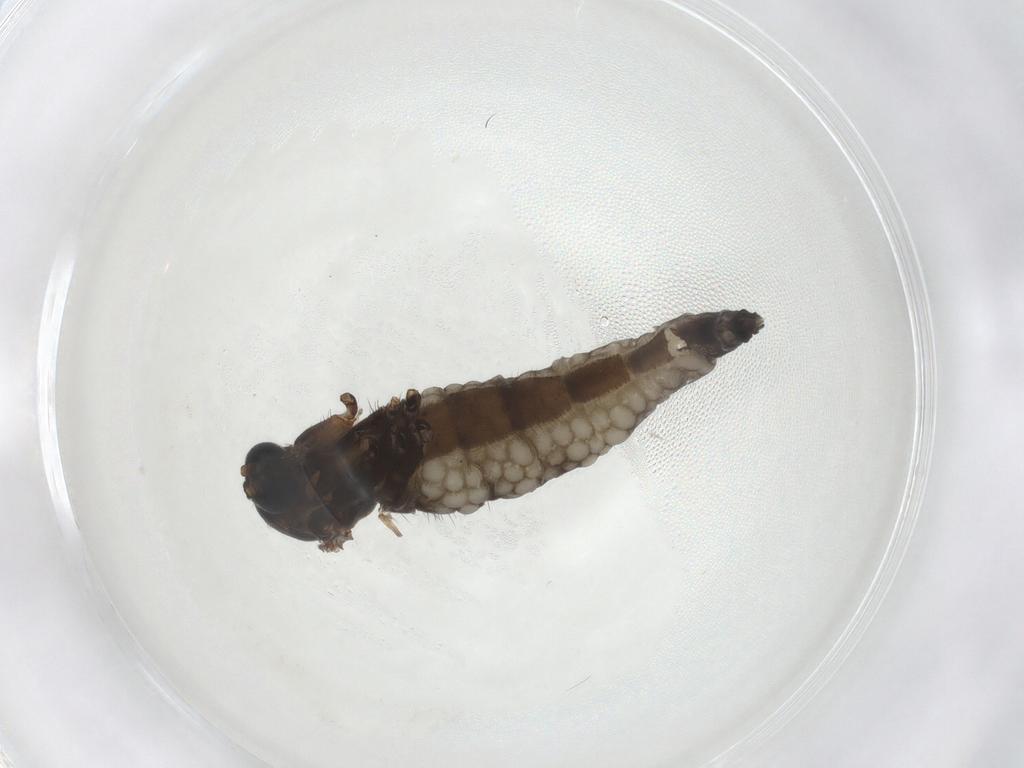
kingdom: Animalia
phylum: Arthropoda
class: Insecta
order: Diptera
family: Sciaridae
